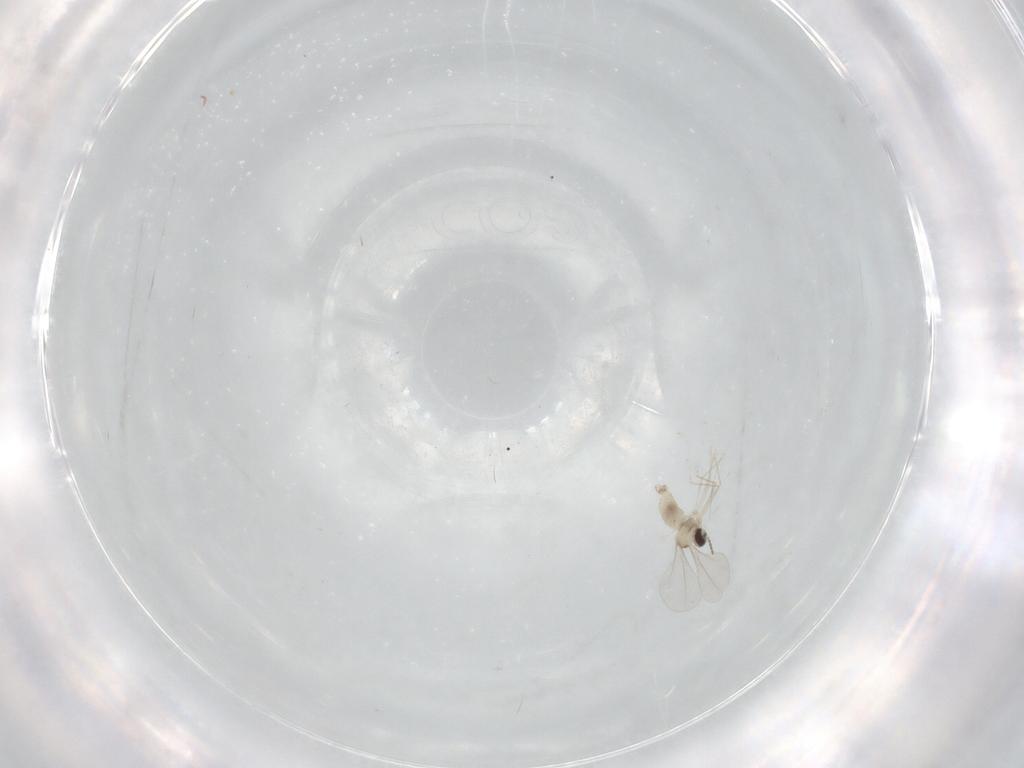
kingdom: Animalia
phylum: Arthropoda
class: Insecta
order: Diptera
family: Cecidomyiidae
